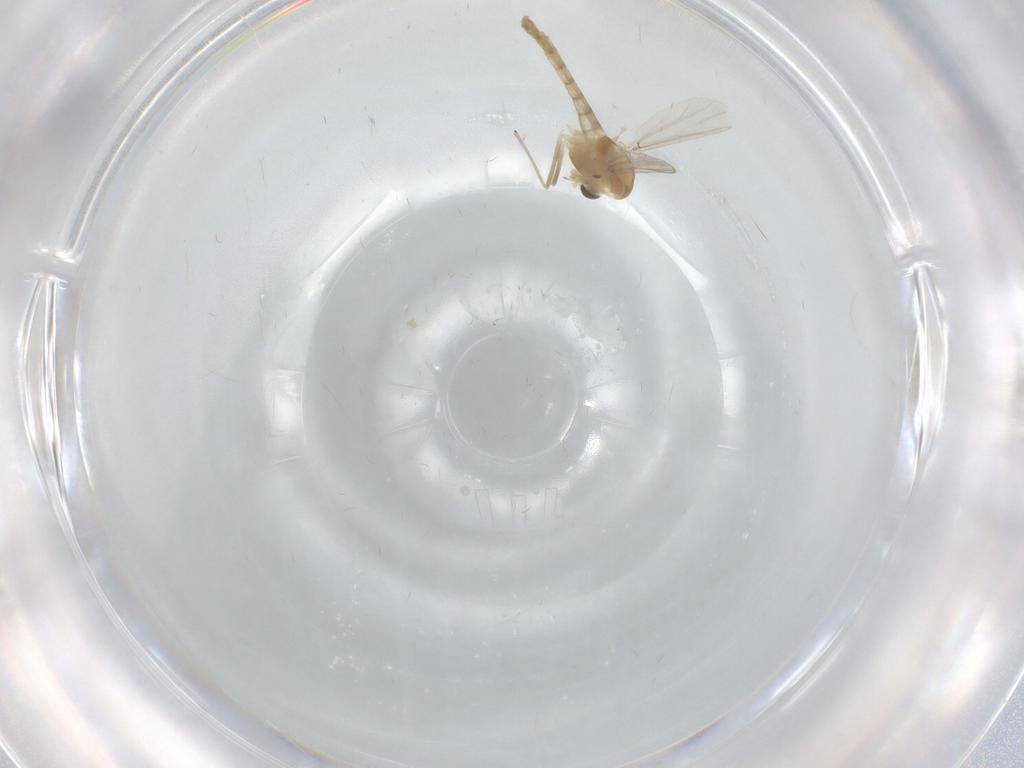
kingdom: Animalia
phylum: Arthropoda
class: Insecta
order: Diptera
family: Chironomidae
